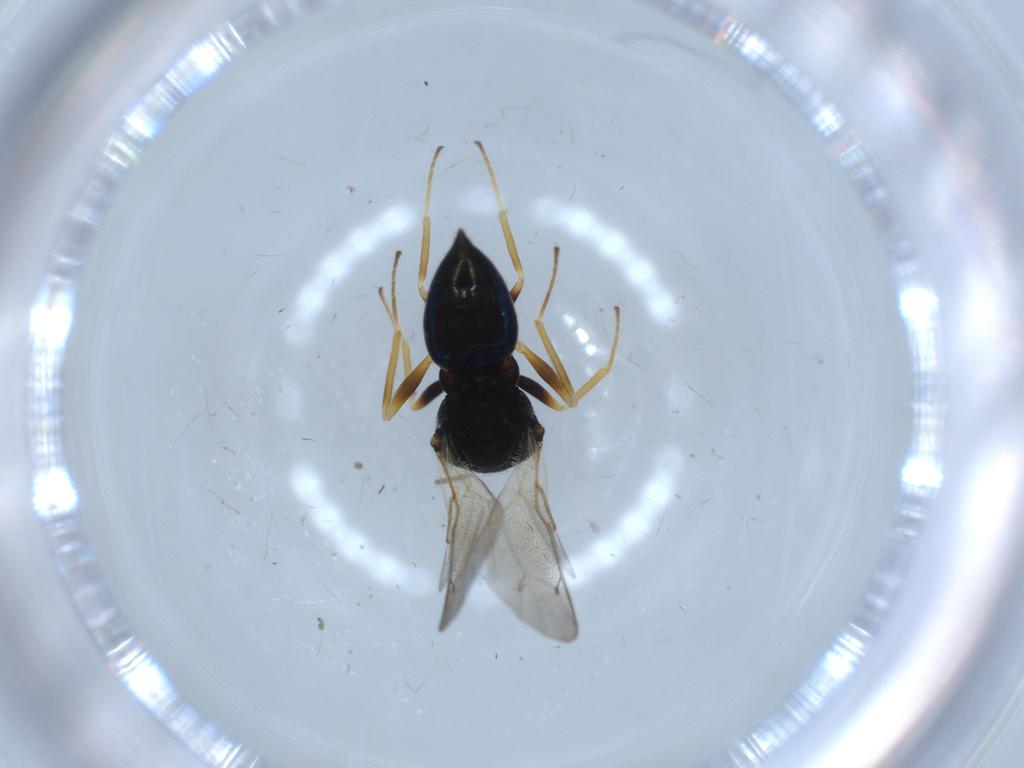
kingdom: Animalia
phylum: Arthropoda
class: Insecta
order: Hymenoptera
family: Pteromalidae
